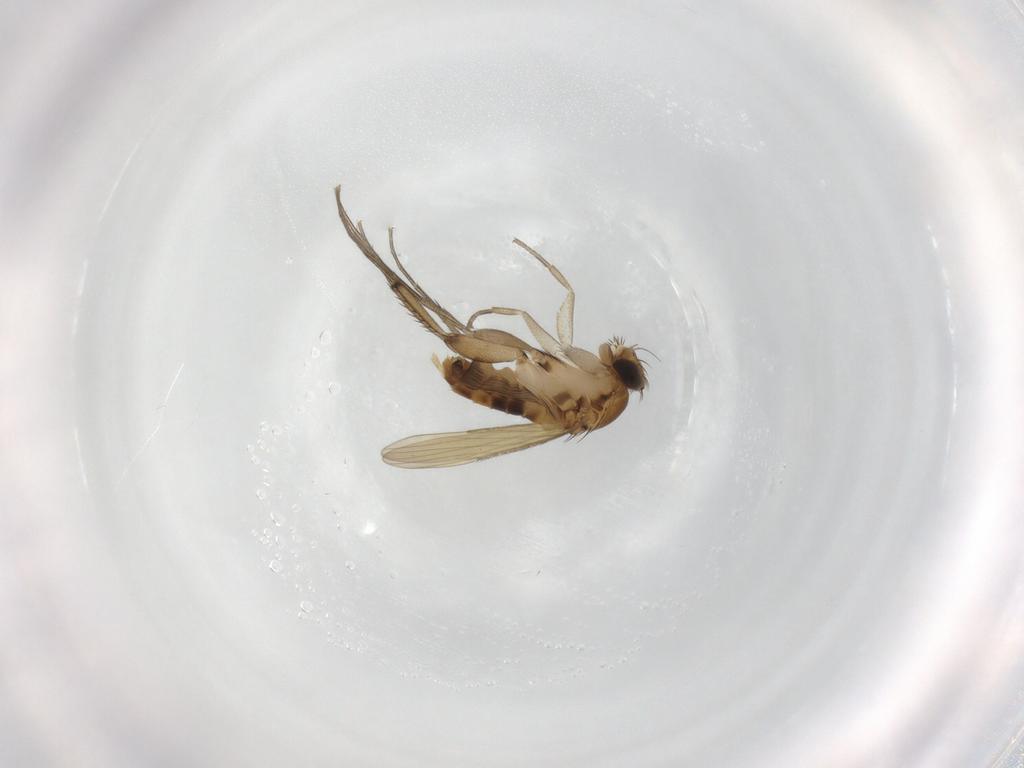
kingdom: Animalia
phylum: Arthropoda
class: Insecta
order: Diptera
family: Phoridae
